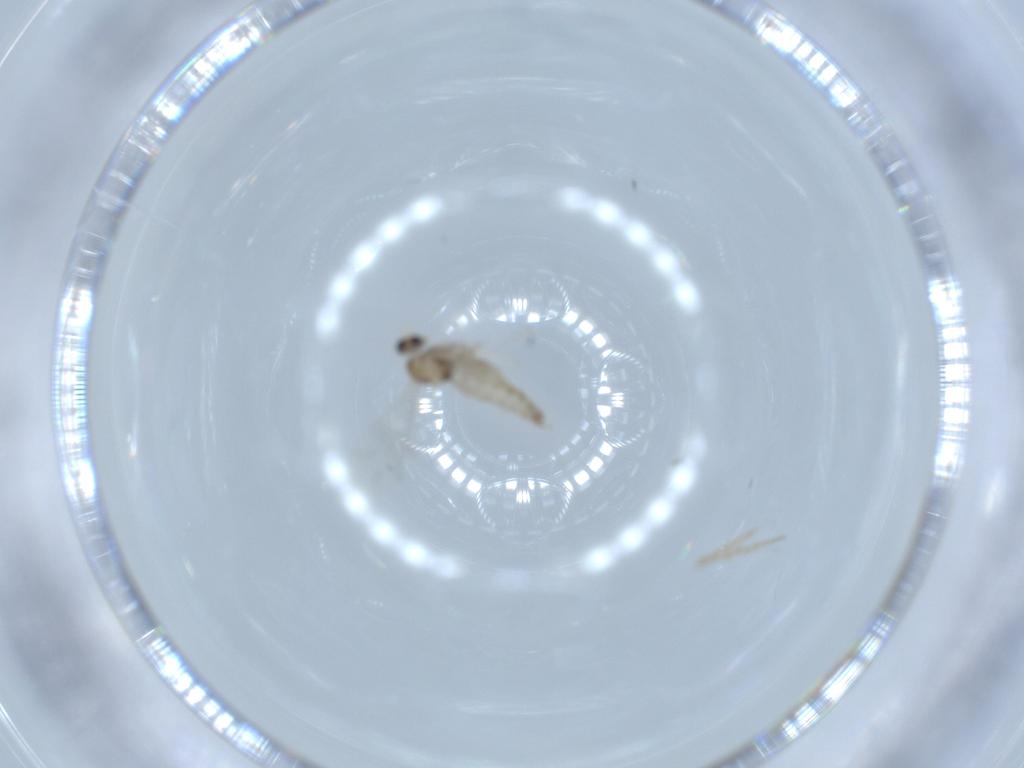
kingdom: Animalia
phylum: Arthropoda
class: Insecta
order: Diptera
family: Cecidomyiidae
